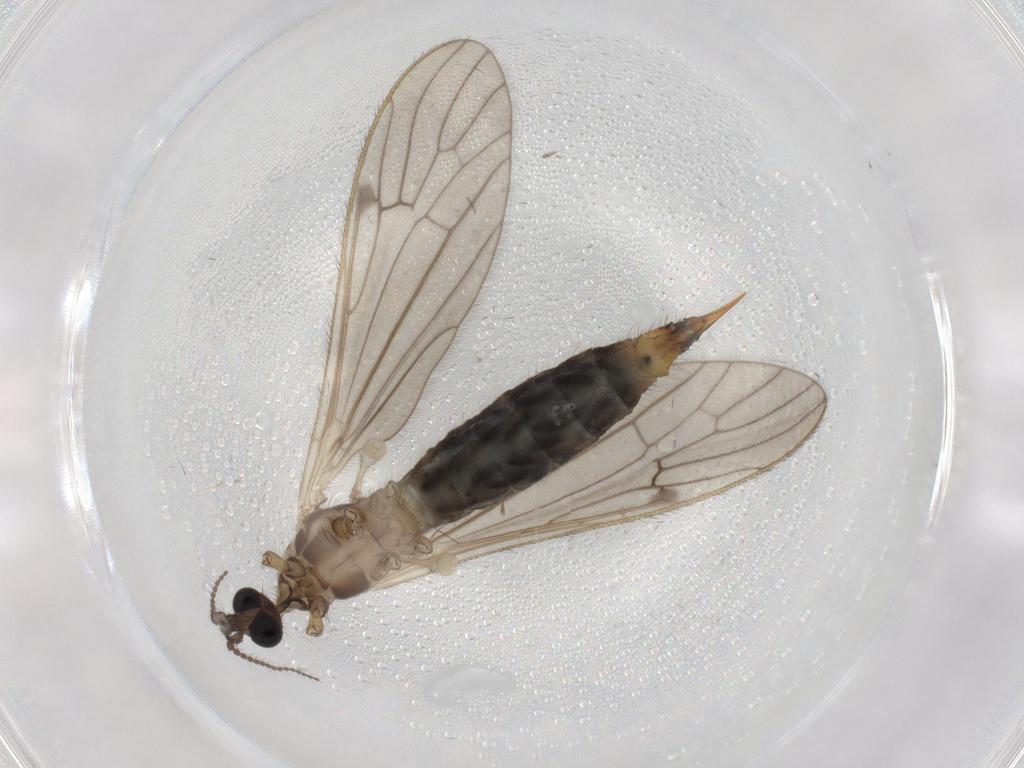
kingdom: Animalia
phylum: Arthropoda
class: Insecta
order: Diptera
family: Limoniidae
